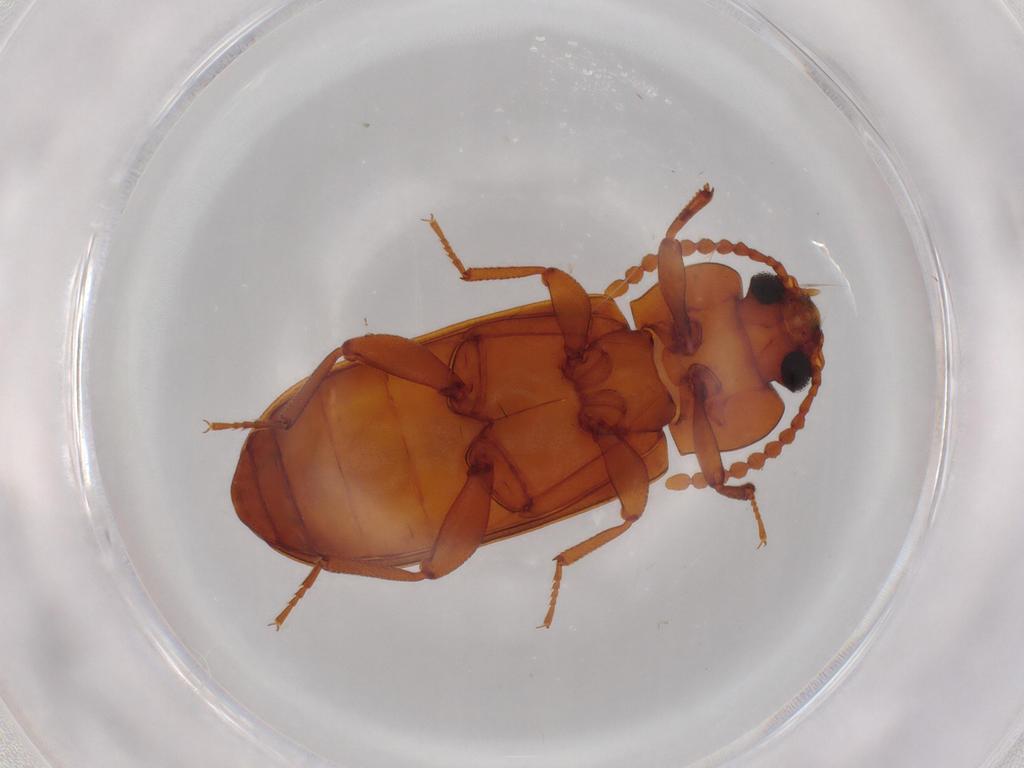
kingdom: Animalia
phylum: Arthropoda
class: Insecta
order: Coleoptera
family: Tenebrionidae
